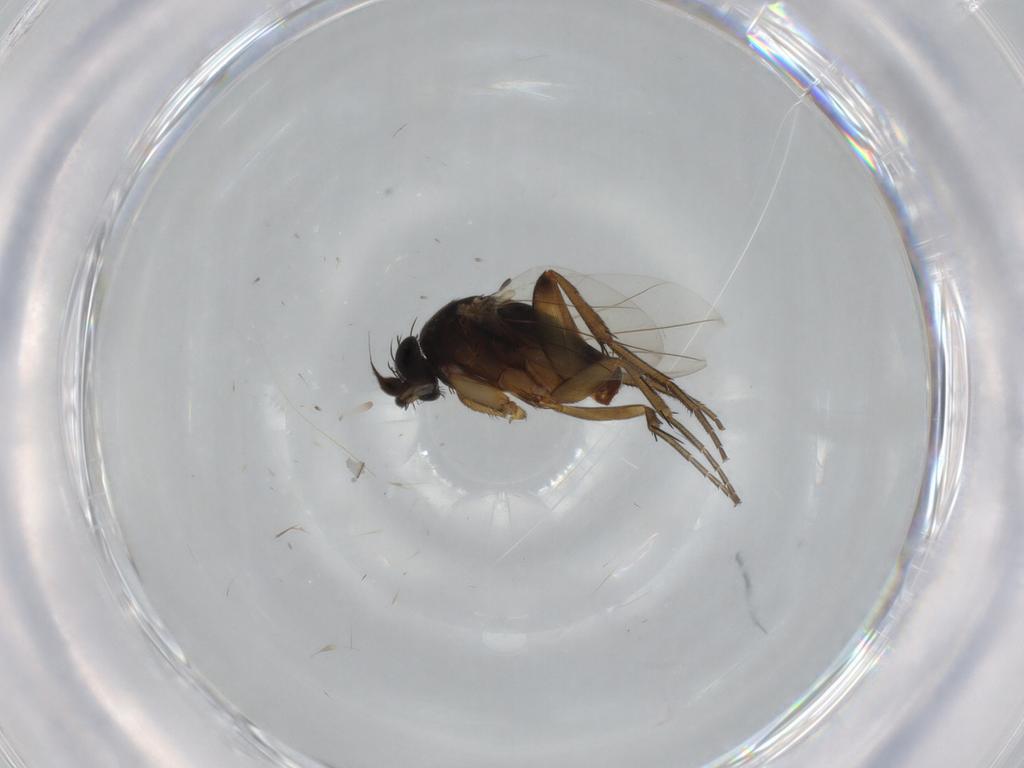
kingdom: Animalia
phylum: Arthropoda
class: Insecta
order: Diptera
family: Phoridae
